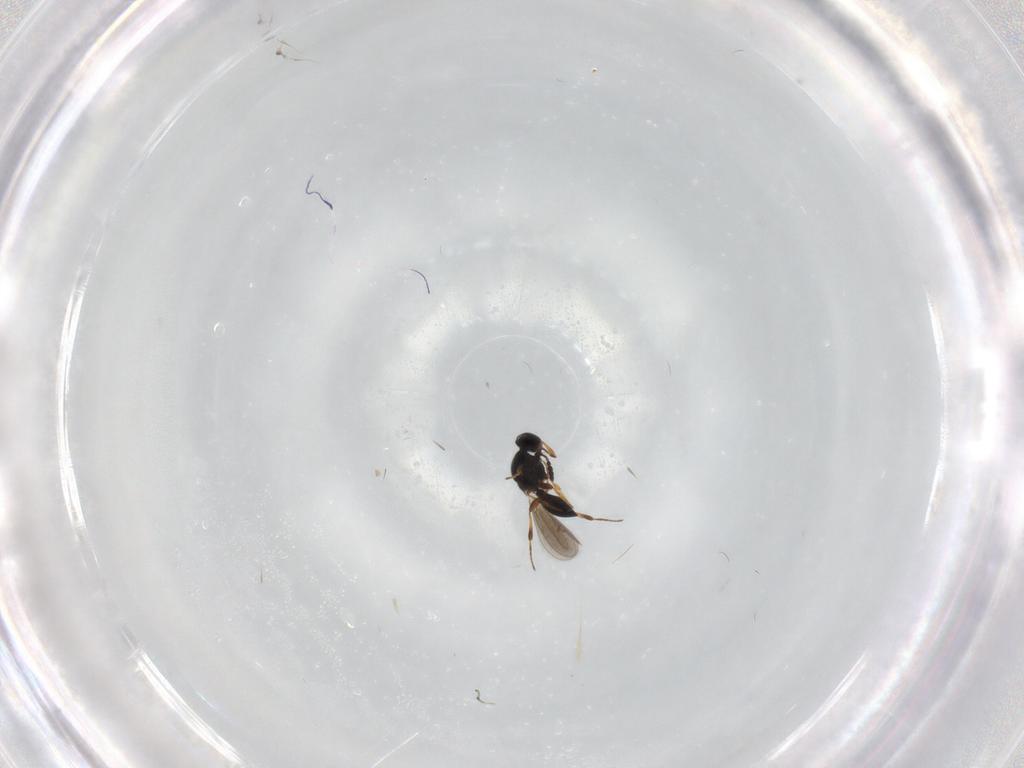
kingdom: Animalia
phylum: Arthropoda
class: Insecta
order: Hymenoptera
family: Platygastridae
